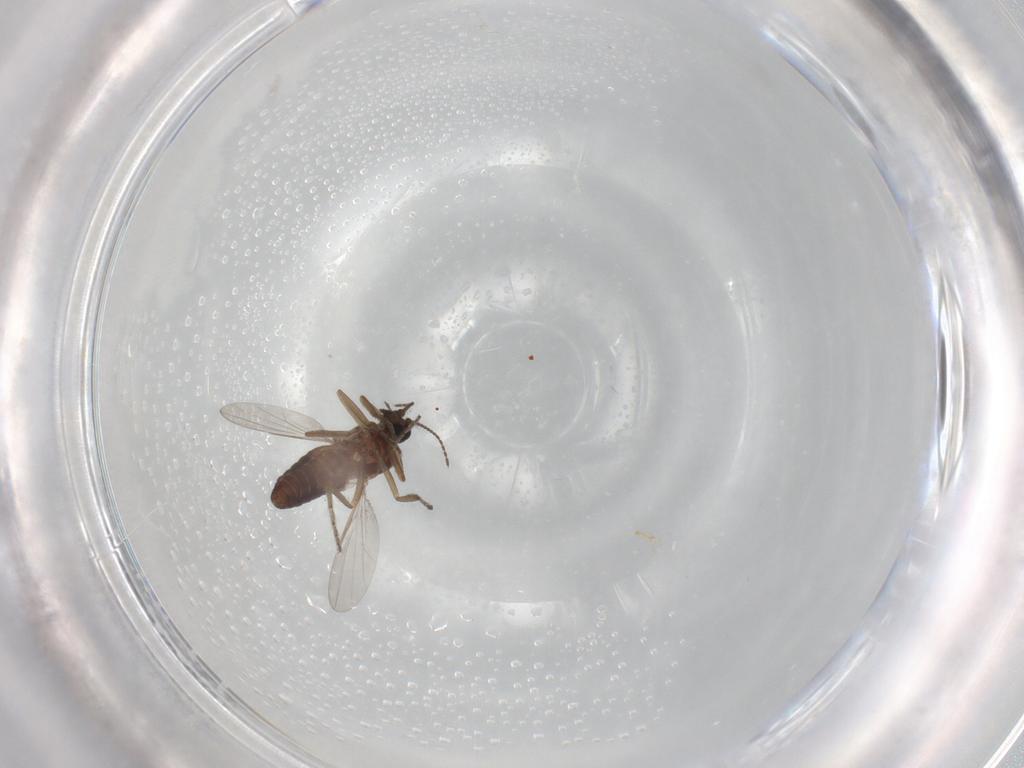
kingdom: Animalia
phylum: Arthropoda
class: Insecta
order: Diptera
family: Ceratopogonidae
